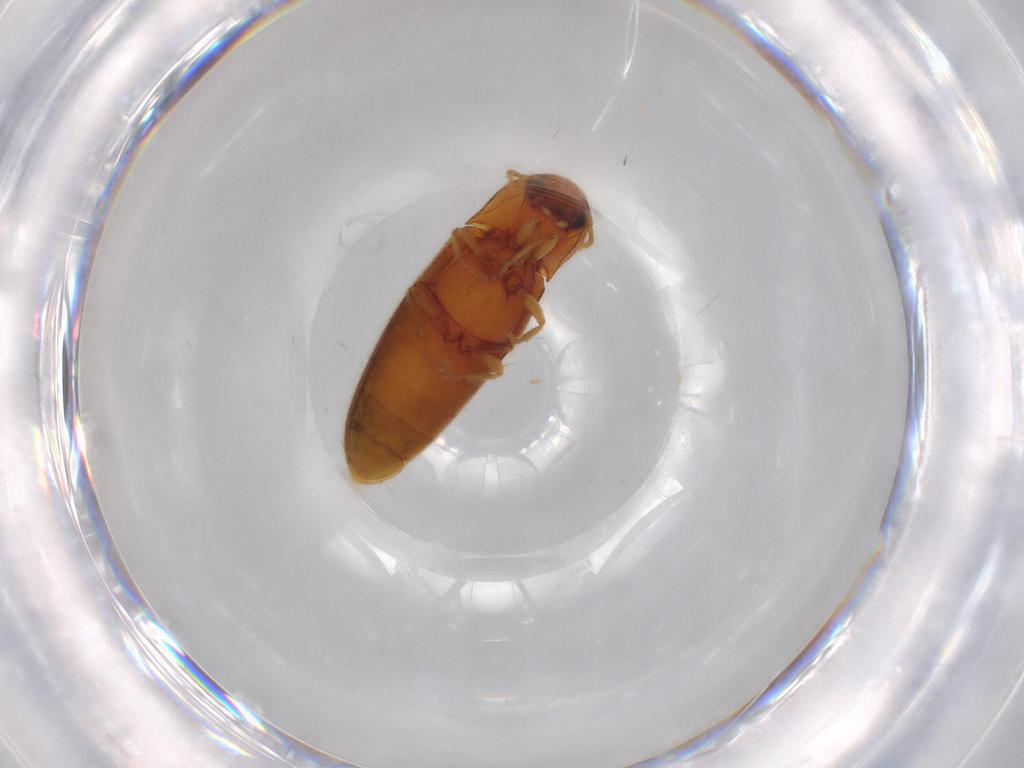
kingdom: Animalia
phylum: Arthropoda
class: Insecta
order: Coleoptera
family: Elateridae
